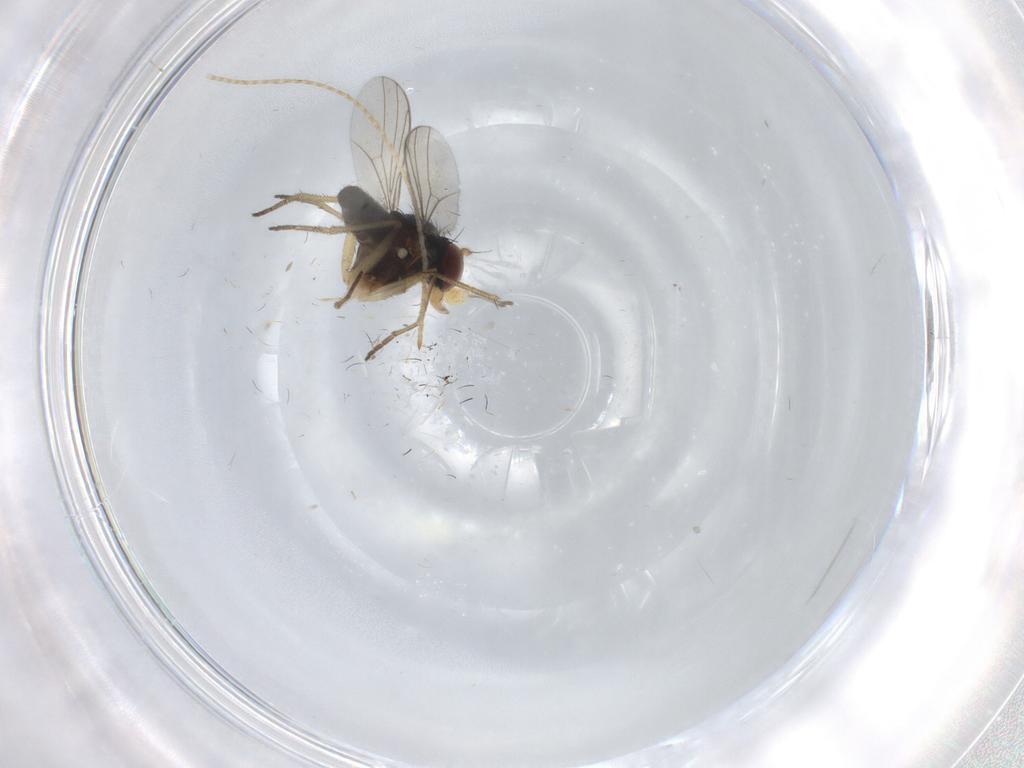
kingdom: Animalia
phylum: Arthropoda
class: Insecta
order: Diptera
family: Dolichopodidae
